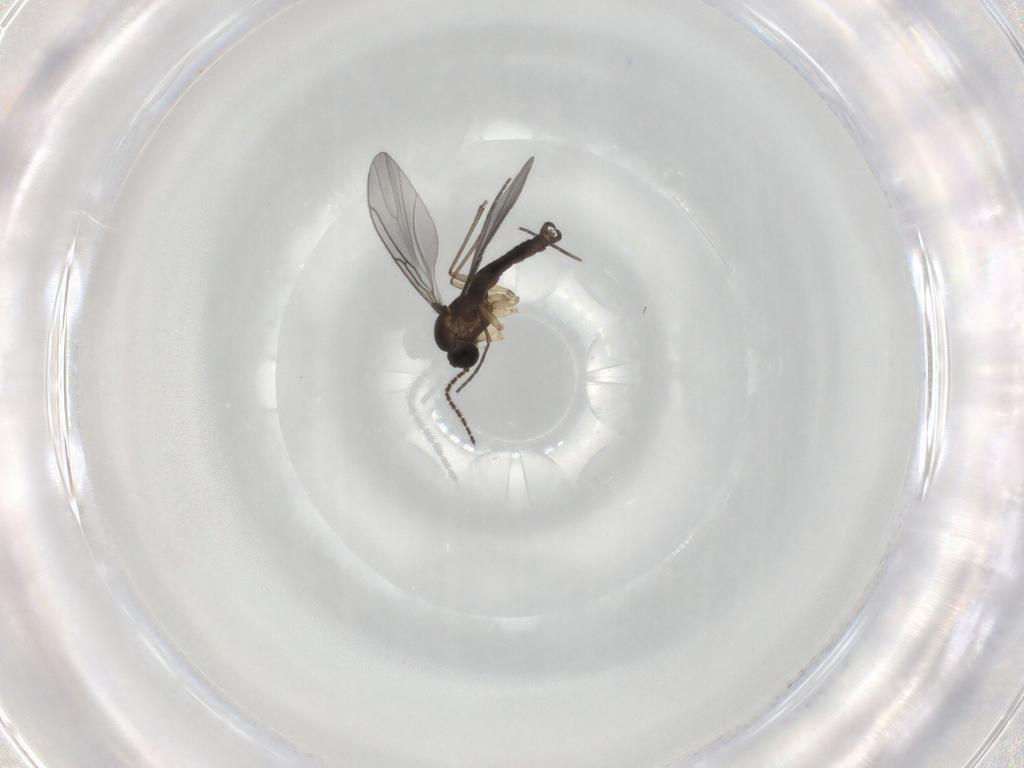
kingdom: Animalia
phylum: Arthropoda
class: Insecta
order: Diptera
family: Sciaridae
